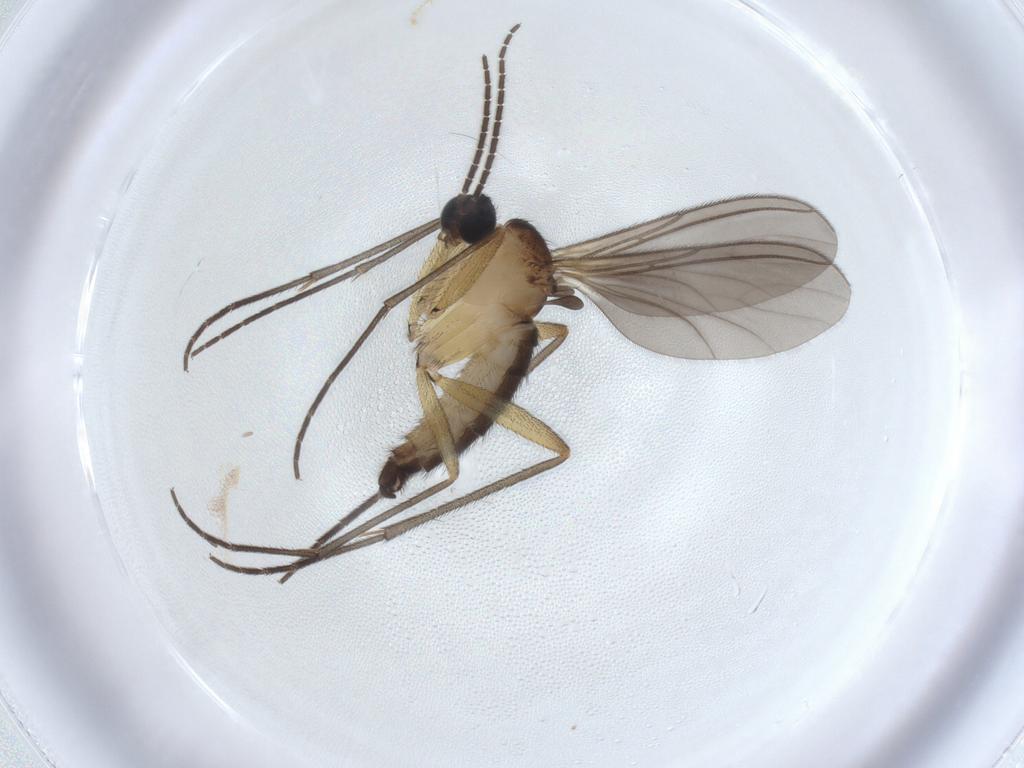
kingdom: Animalia
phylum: Arthropoda
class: Insecta
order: Diptera
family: Sciaridae
